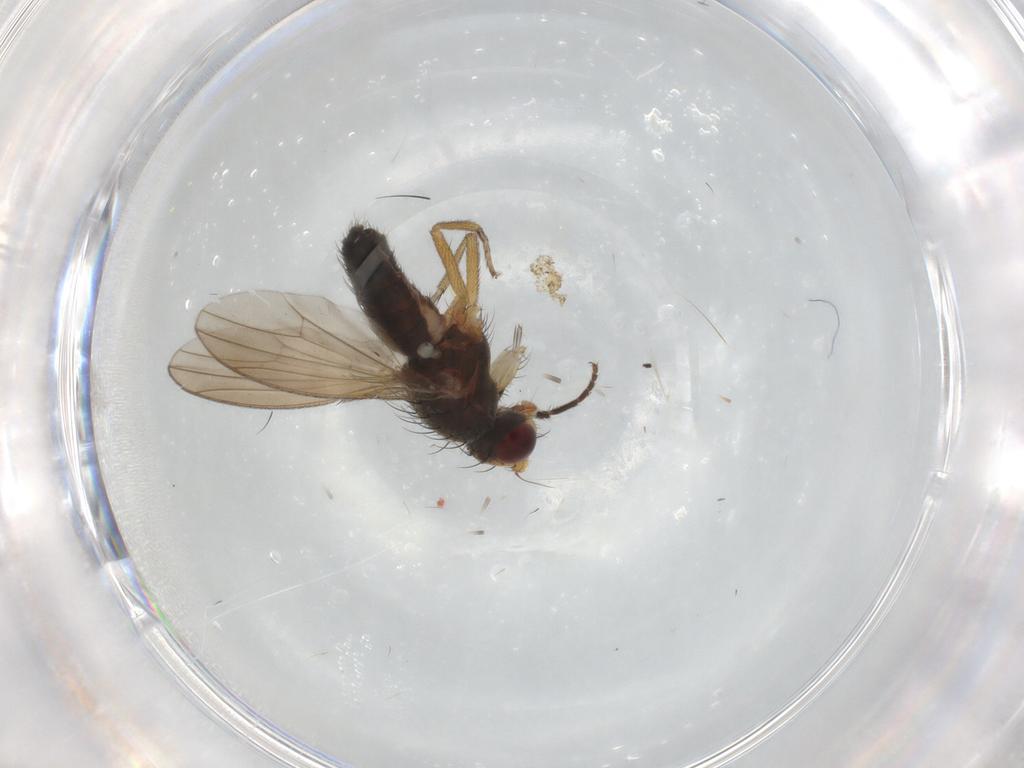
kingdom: Animalia
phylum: Arthropoda
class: Insecta
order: Diptera
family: Heleomyzidae
